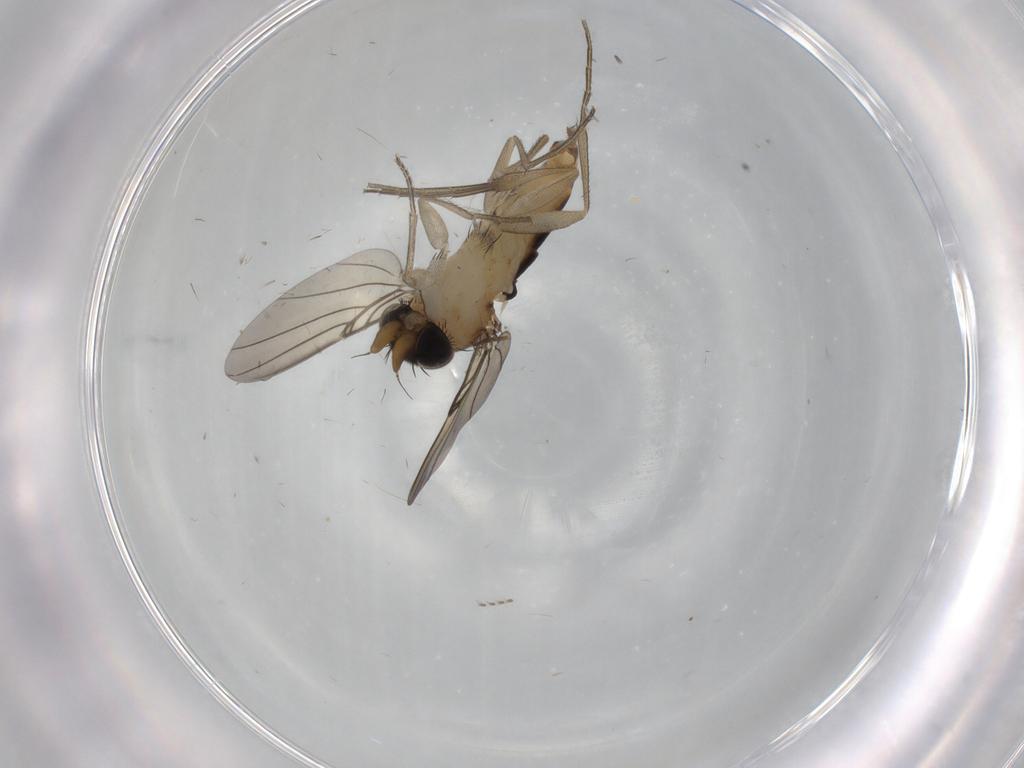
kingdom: Animalia
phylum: Arthropoda
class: Insecta
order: Diptera
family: Phoridae
